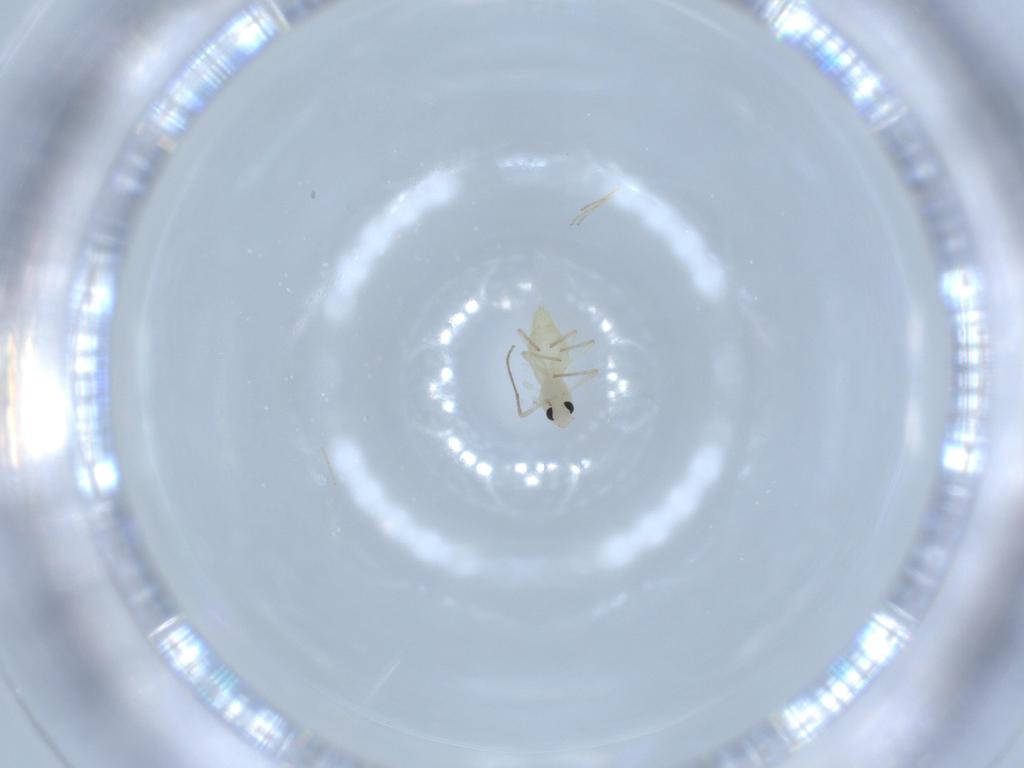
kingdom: Animalia
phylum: Arthropoda
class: Insecta
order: Diptera
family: Chironomidae
